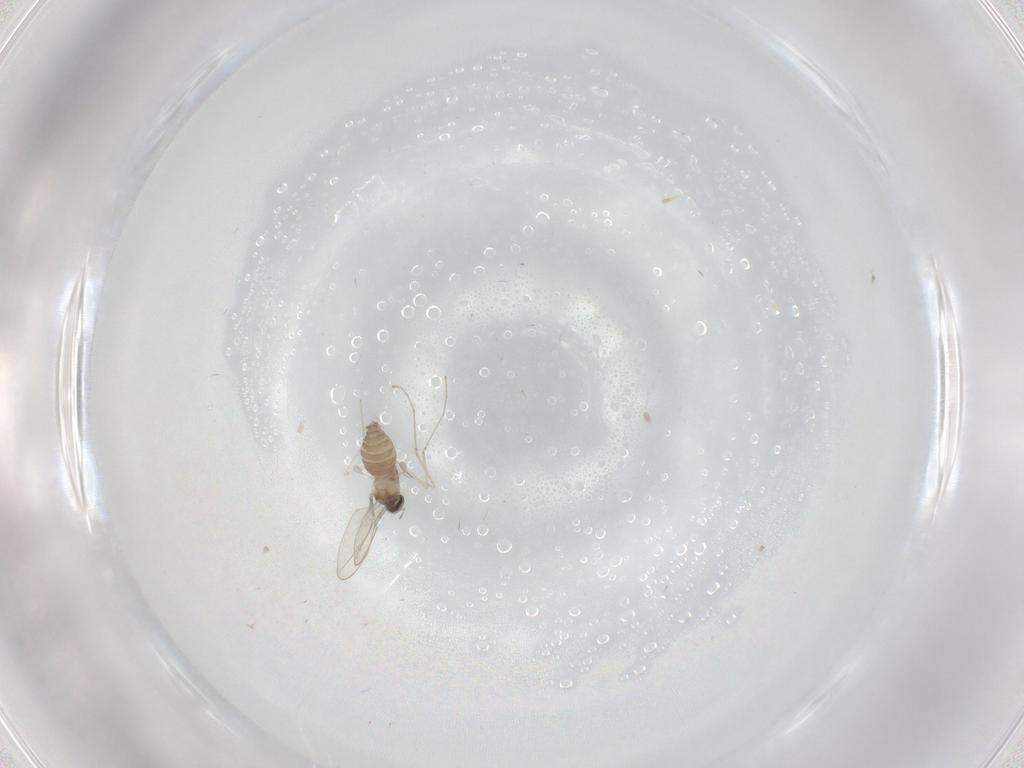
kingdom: Animalia
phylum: Arthropoda
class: Insecta
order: Diptera
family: Cecidomyiidae
